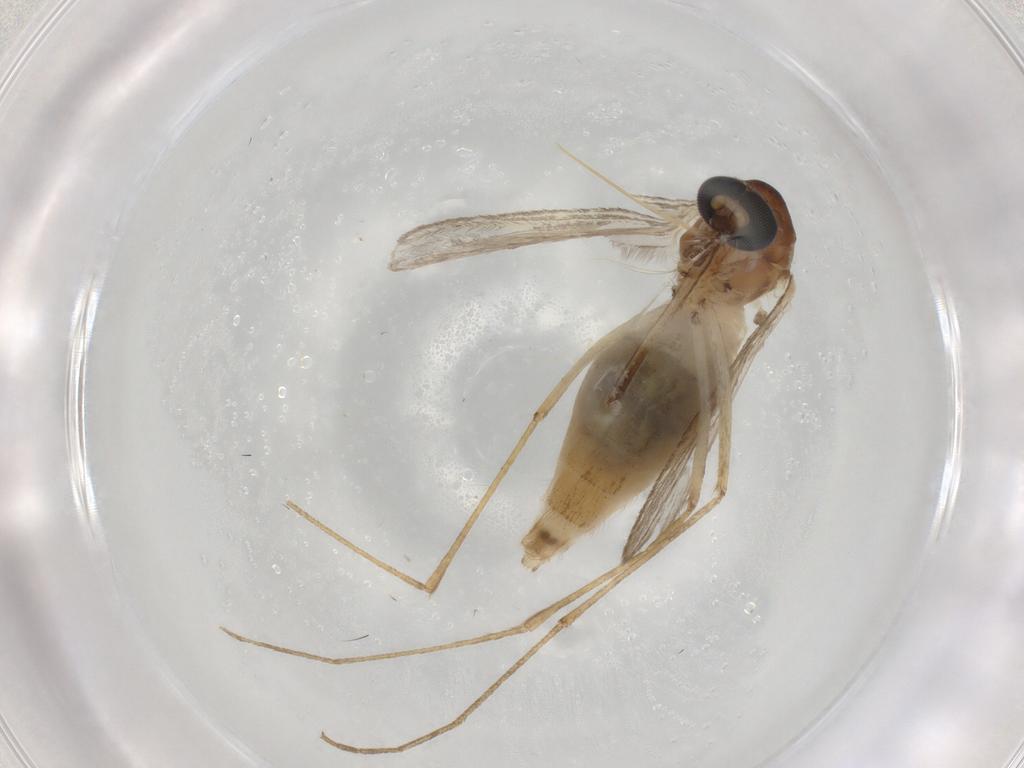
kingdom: Animalia
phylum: Arthropoda
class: Insecta
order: Diptera
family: Culicidae
